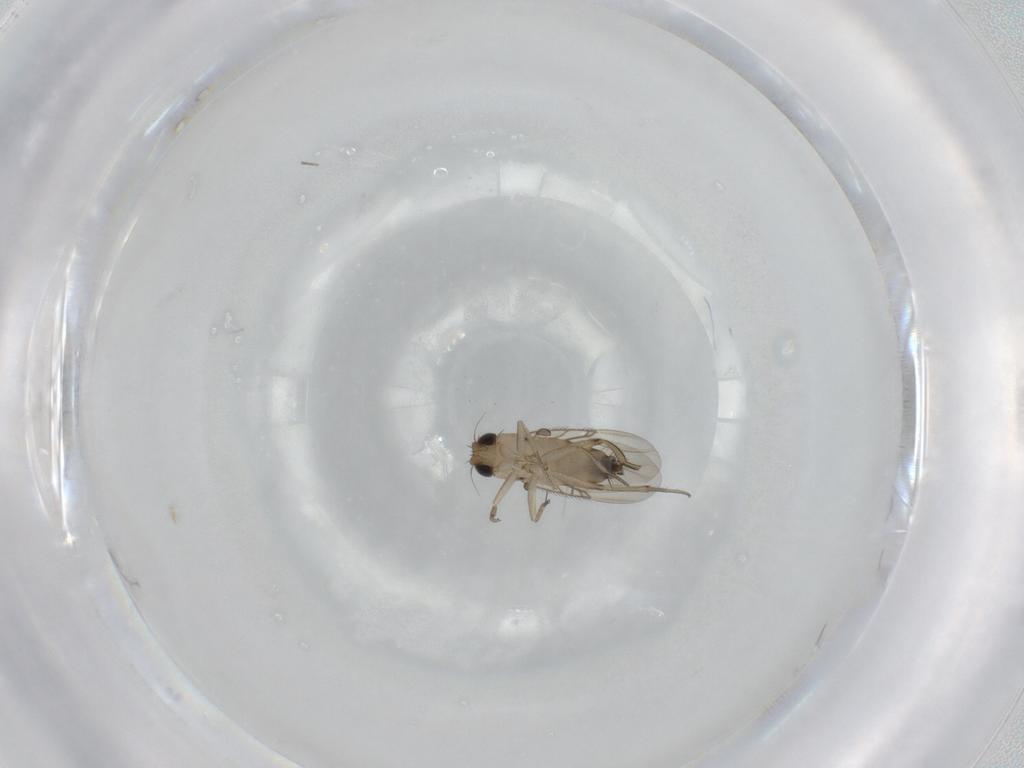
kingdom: Animalia
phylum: Arthropoda
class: Insecta
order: Diptera
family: Phoridae
